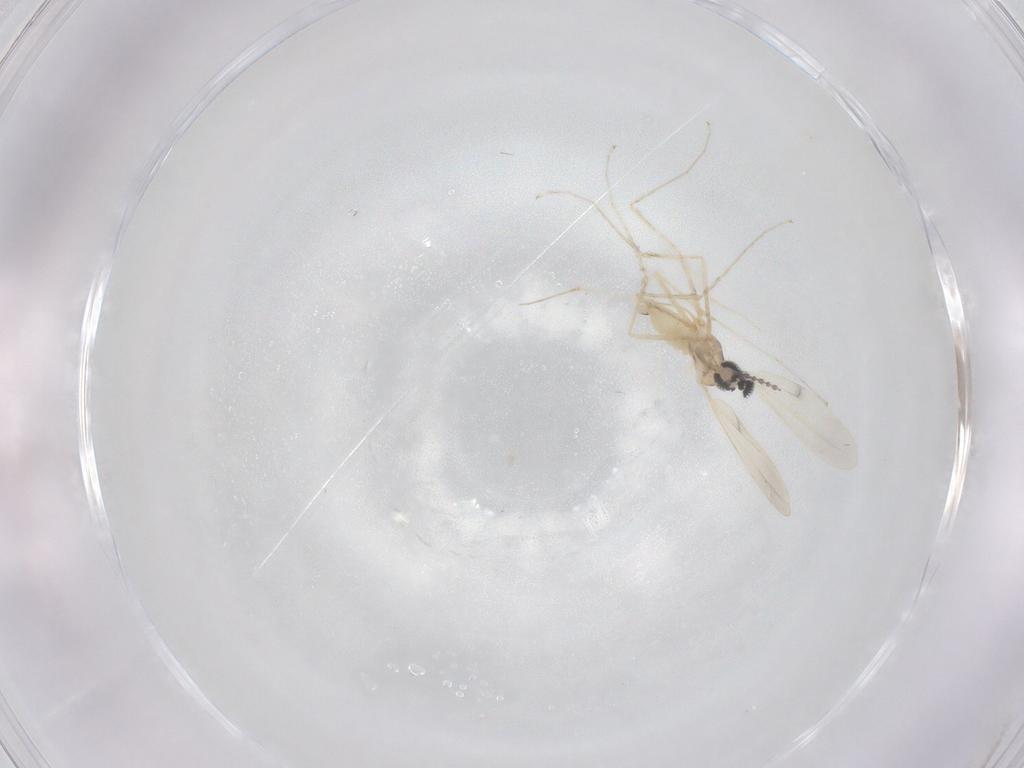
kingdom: Animalia
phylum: Arthropoda
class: Insecta
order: Diptera
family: Cecidomyiidae
